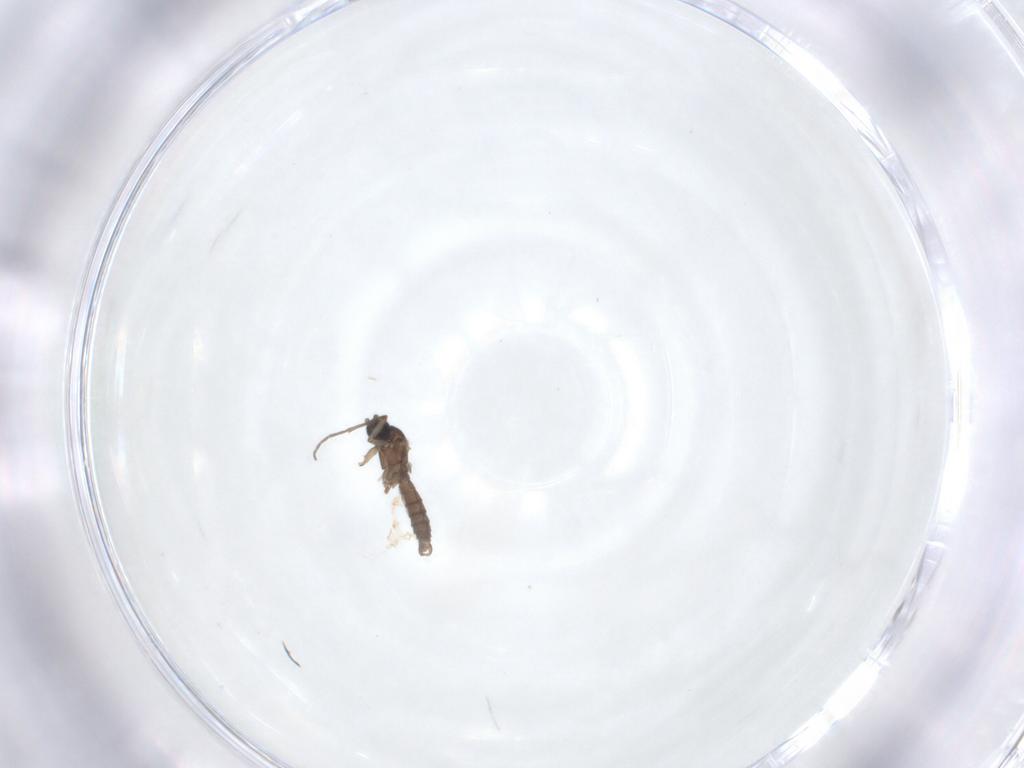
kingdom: Animalia
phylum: Arthropoda
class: Insecta
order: Diptera
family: Sciaridae
